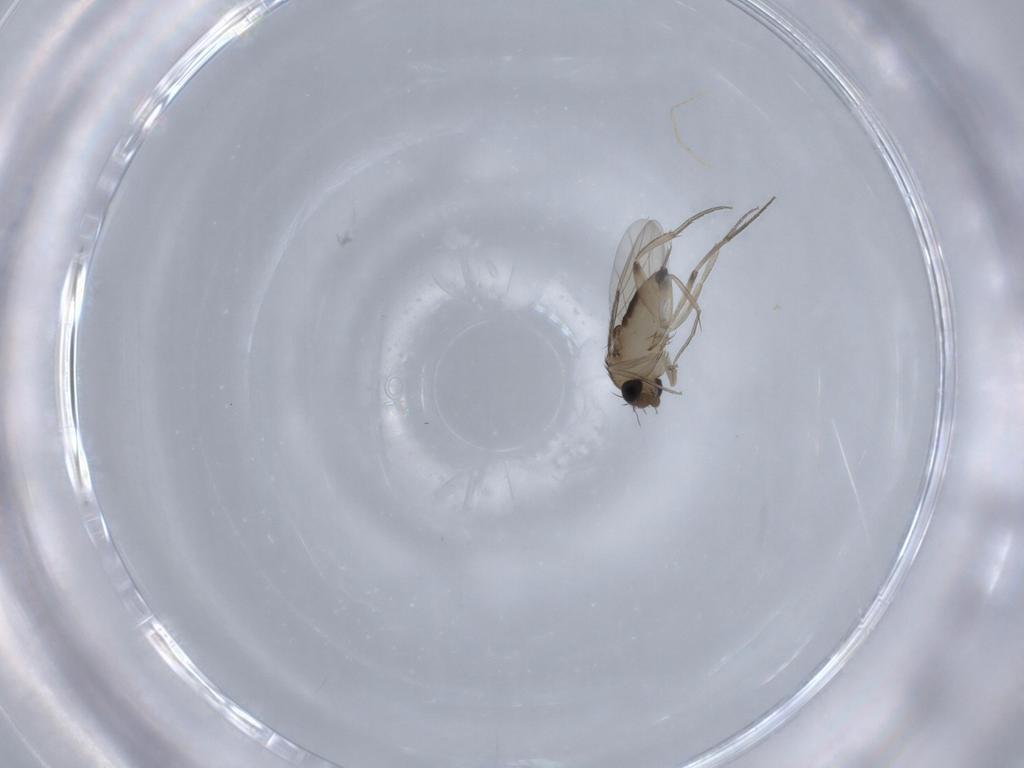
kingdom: Animalia
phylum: Arthropoda
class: Insecta
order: Diptera
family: Phoridae
